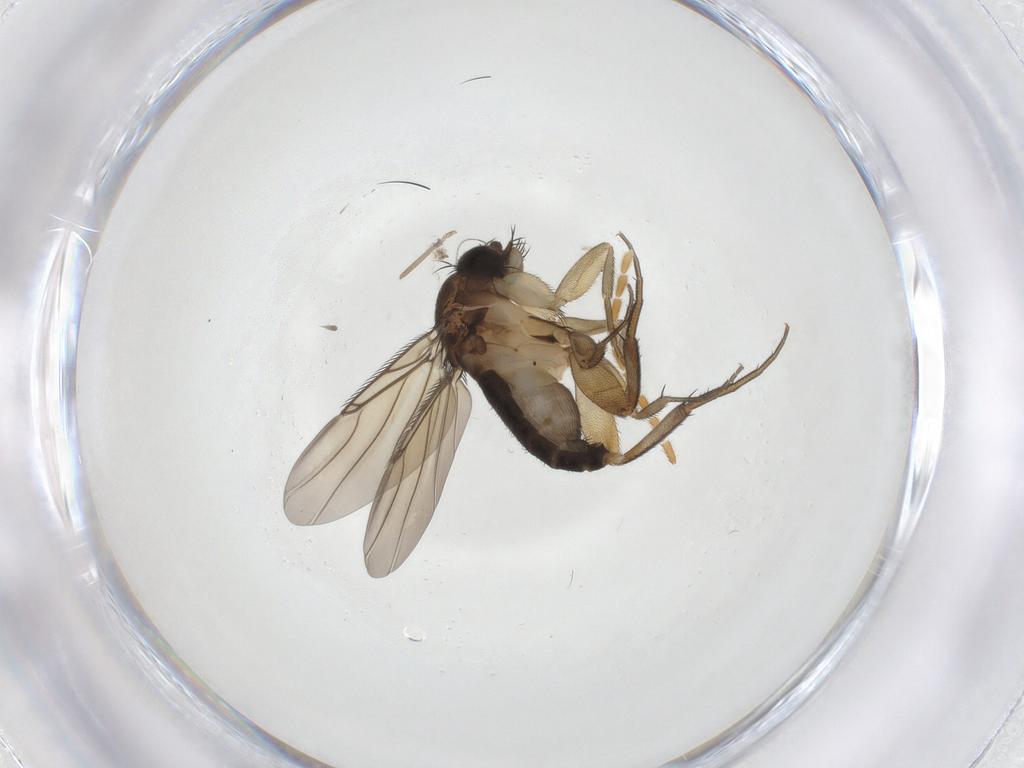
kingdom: Animalia
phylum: Arthropoda
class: Insecta
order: Diptera
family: Phoridae
